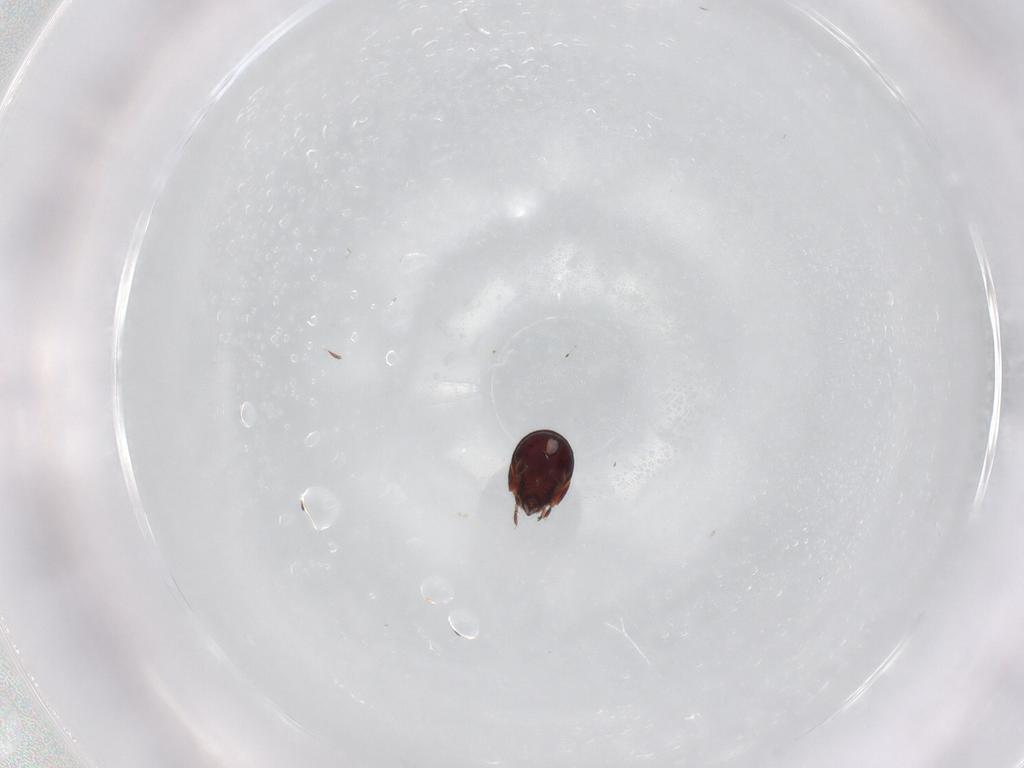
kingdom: Animalia
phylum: Arthropoda
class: Arachnida
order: Sarcoptiformes
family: Humerobatidae
